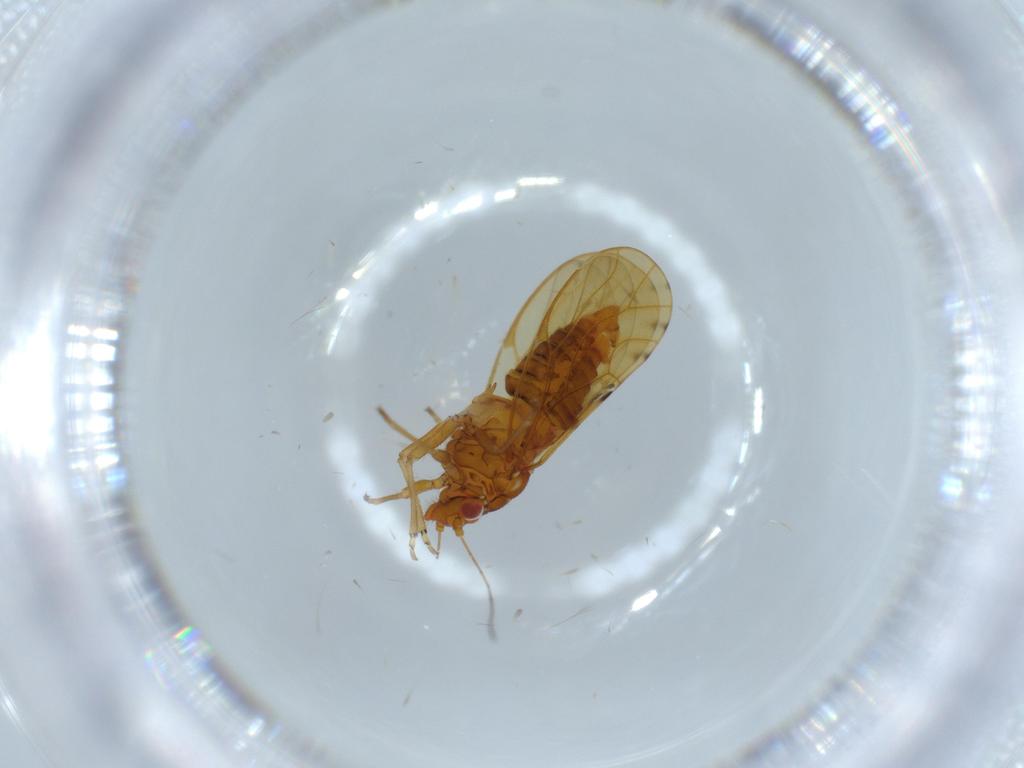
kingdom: Animalia
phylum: Arthropoda
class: Insecta
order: Hemiptera
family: Psylloidea_incertae_sedis
